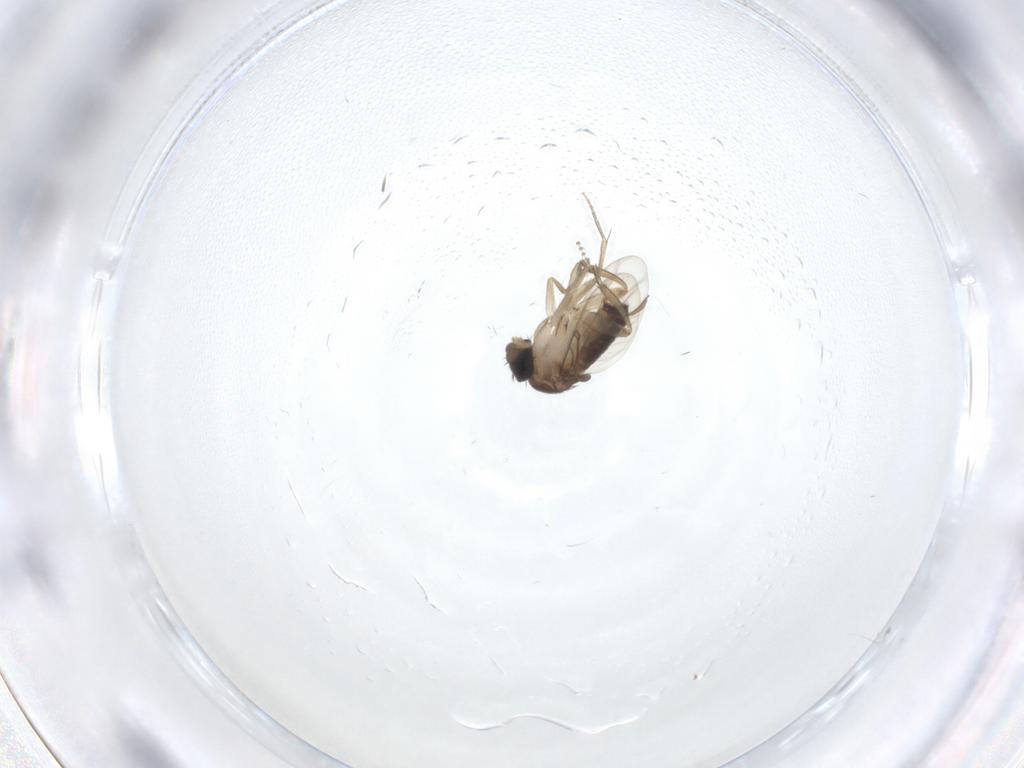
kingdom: Animalia
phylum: Arthropoda
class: Insecta
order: Diptera
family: Psychodidae
